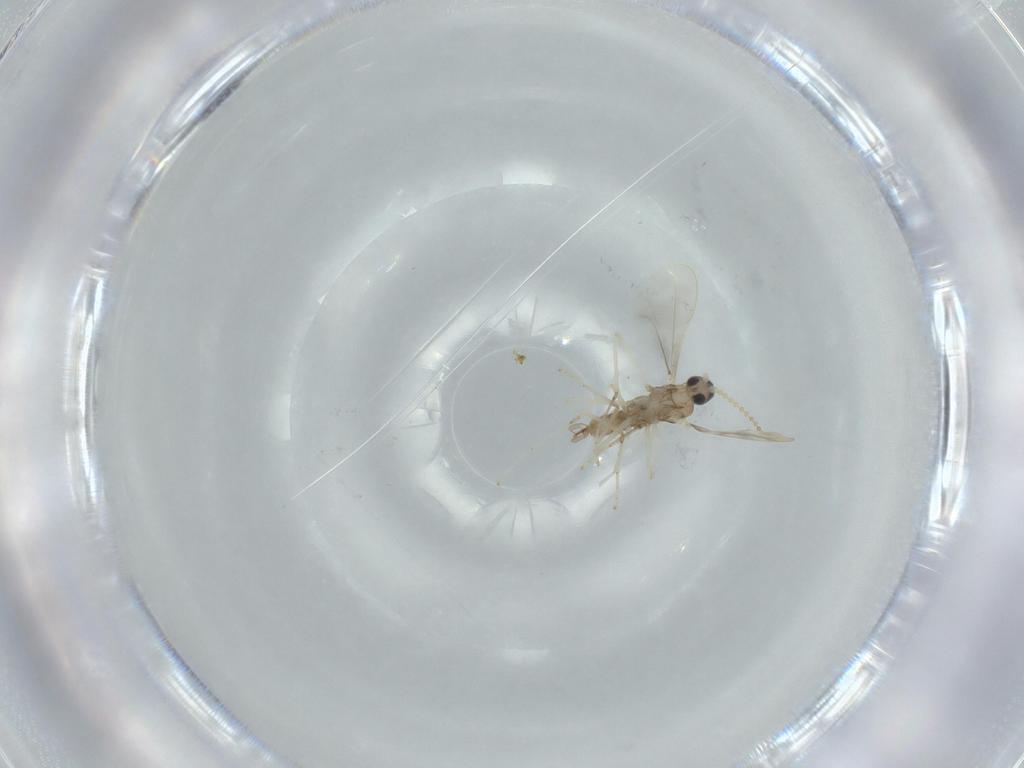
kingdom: Animalia
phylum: Arthropoda
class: Insecta
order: Diptera
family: Cecidomyiidae
